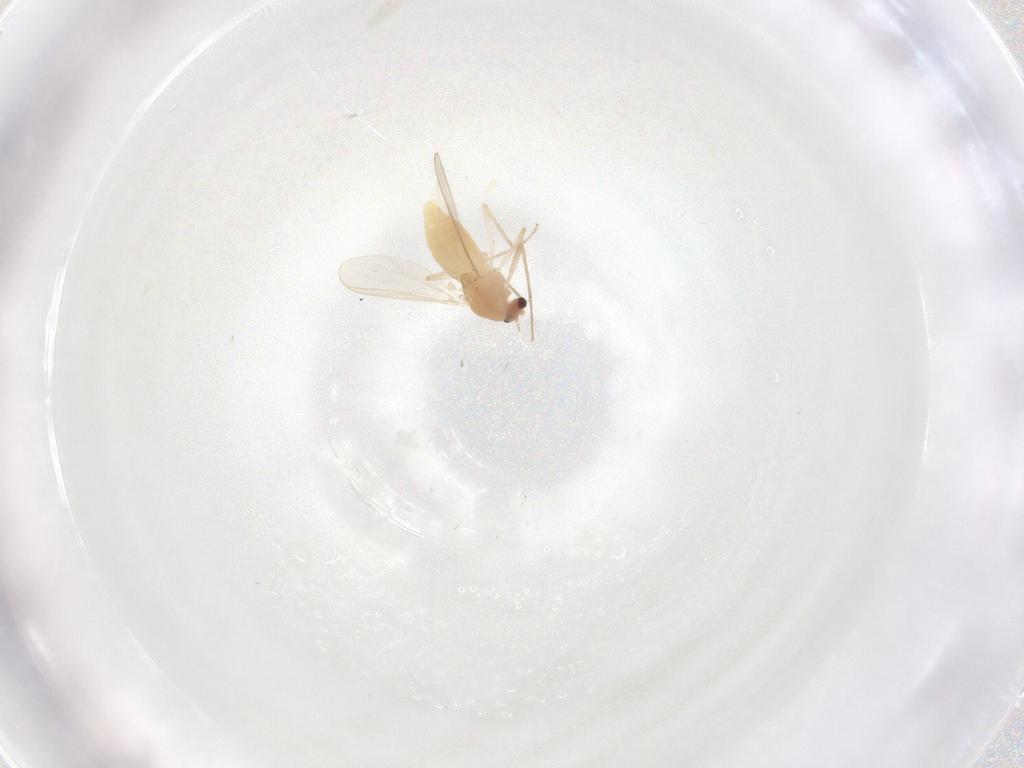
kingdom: Animalia
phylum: Arthropoda
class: Insecta
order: Diptera
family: Chironomidae
